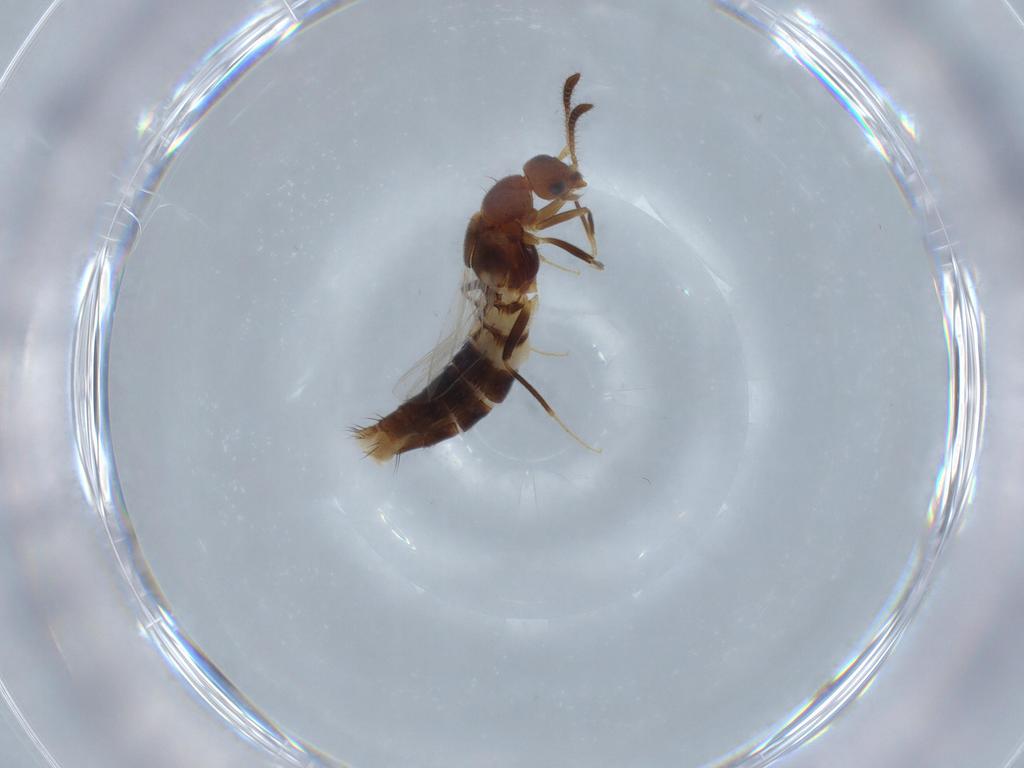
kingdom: Animalia
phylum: Arthropoda
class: Insecta
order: Coleoptera
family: Staphylinidae
